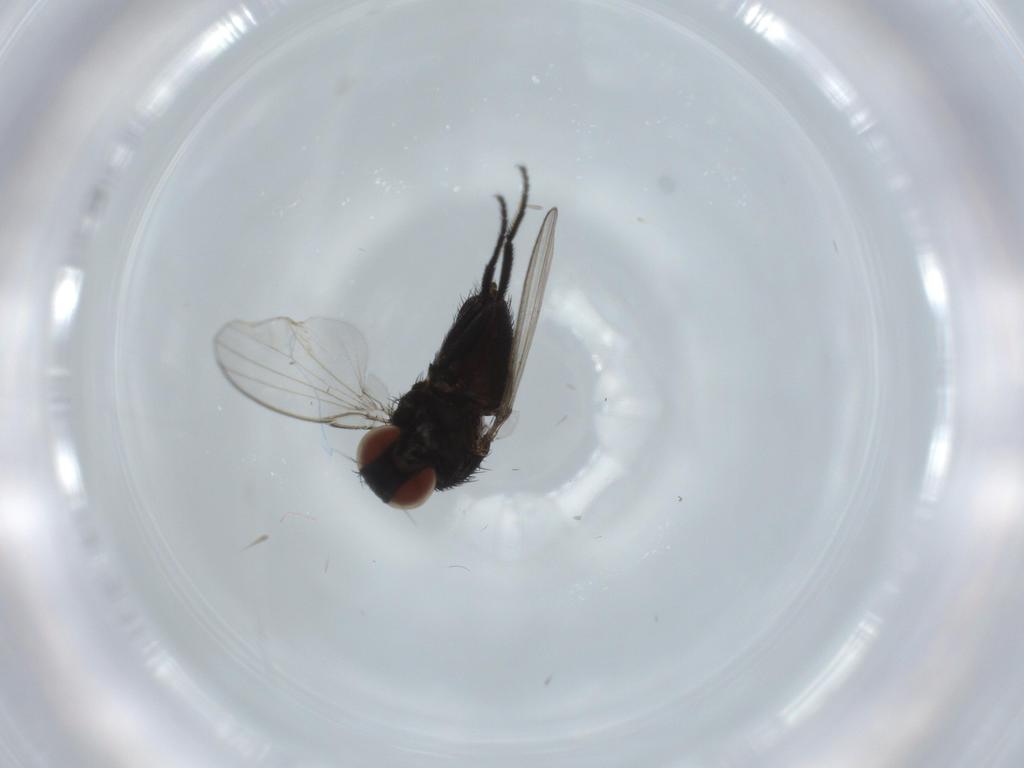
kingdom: Animalia
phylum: Arthropoda
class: Insecta
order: Diptera
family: Cecidomyiidae
